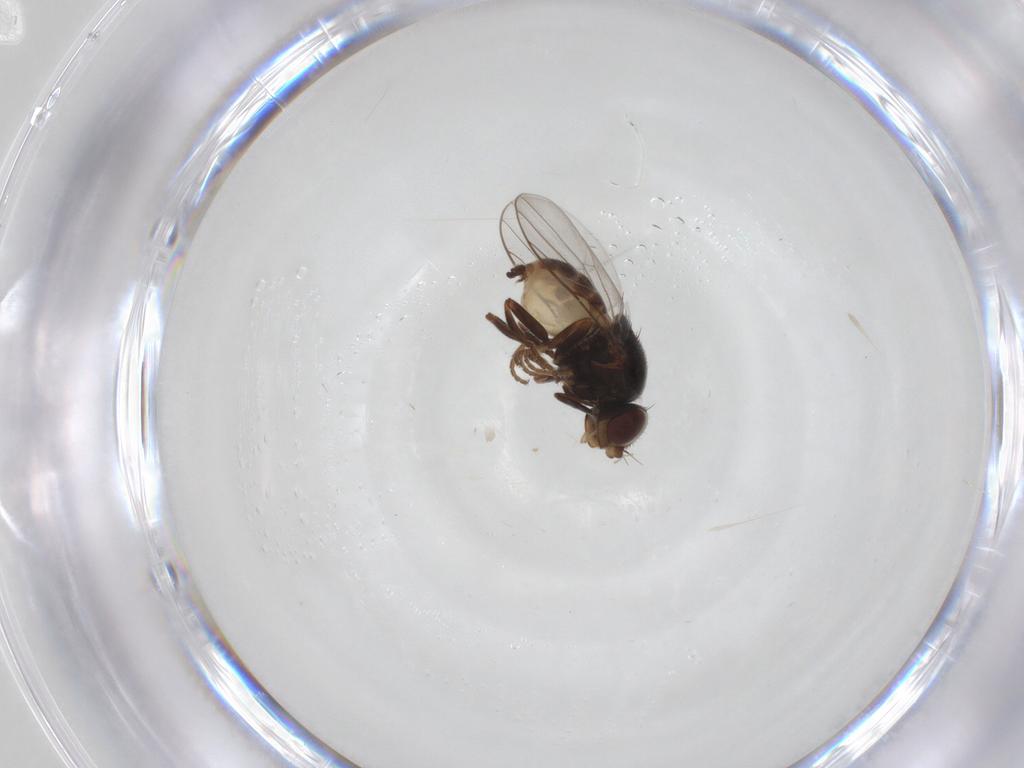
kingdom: Animalia
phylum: Arthropoda
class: Insecta
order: Diptera
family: Chloropidae
